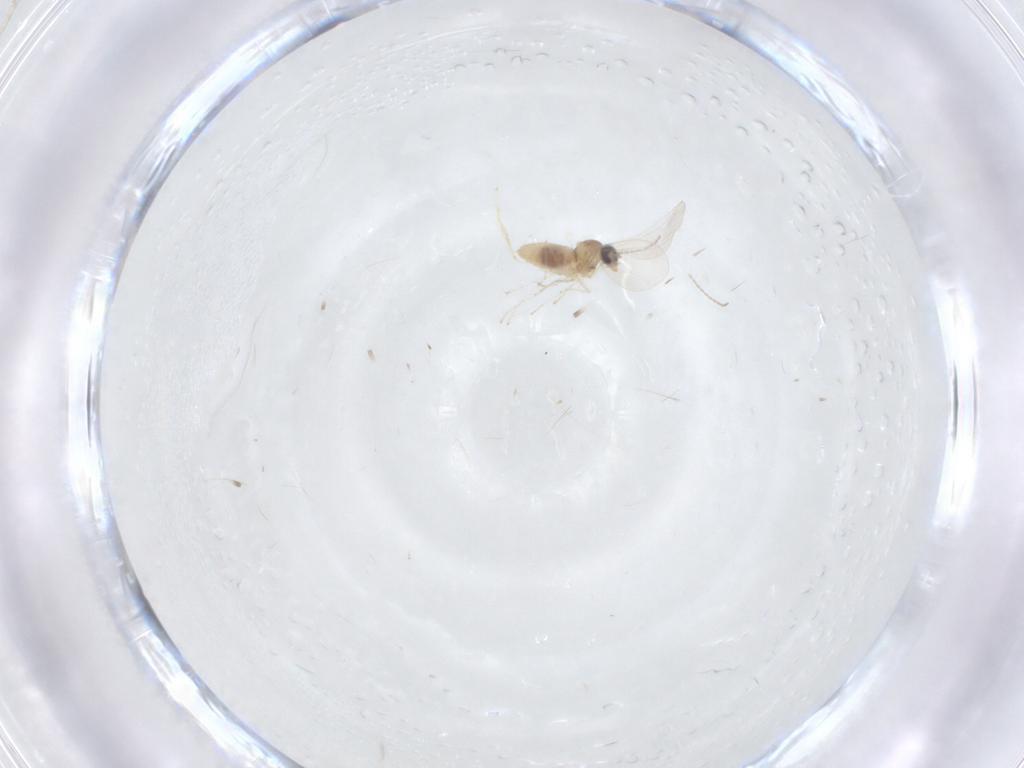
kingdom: Animalia
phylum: Arthropoda
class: Insecta
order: Diptera
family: Cecidomyiidae
